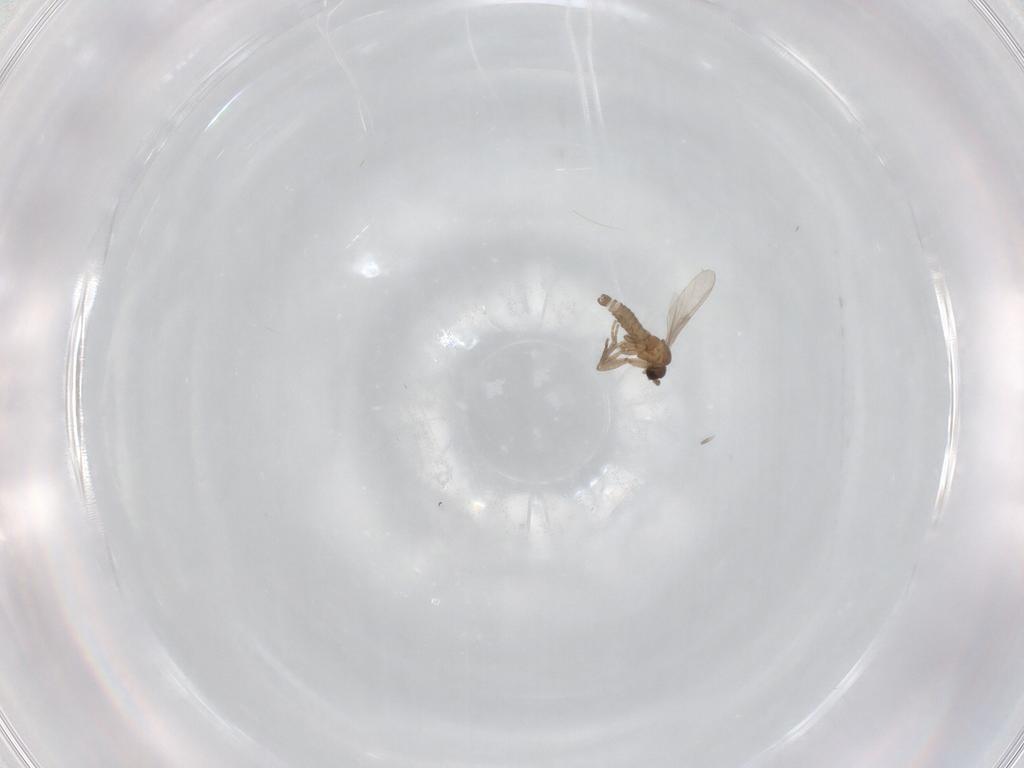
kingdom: Animalia
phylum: Arthropoda
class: Insecta
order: Diptera
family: Sciaridae
